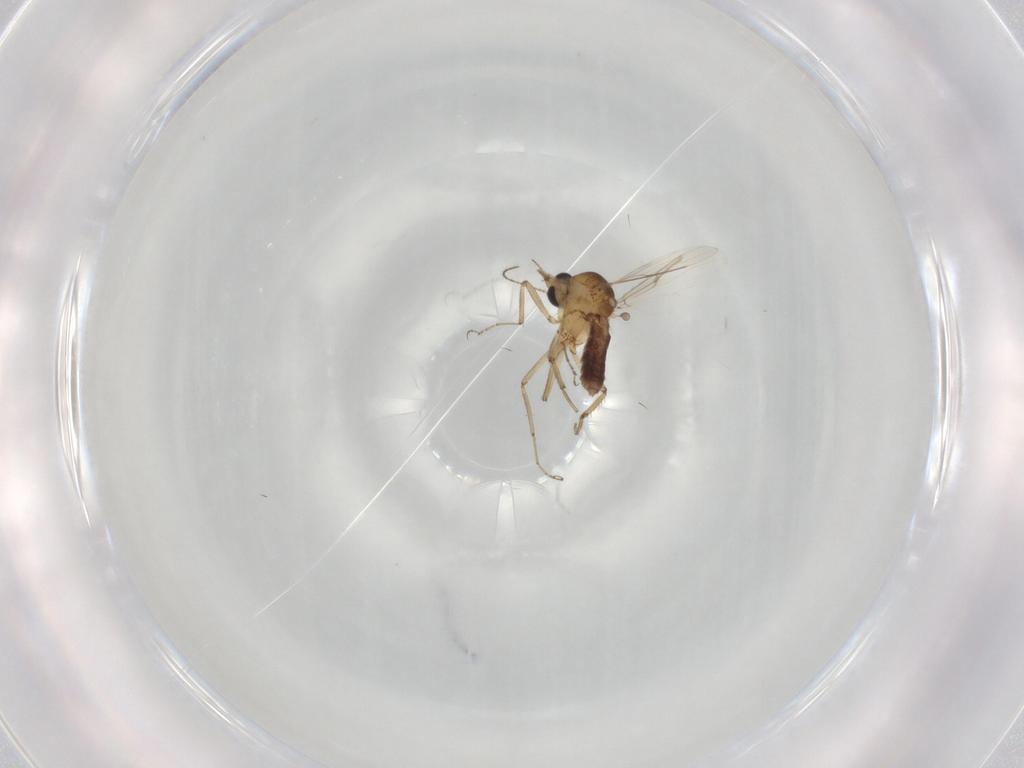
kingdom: Animalia
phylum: Arthropoda
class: Insecta
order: Diptera
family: Ceratopogonidae
